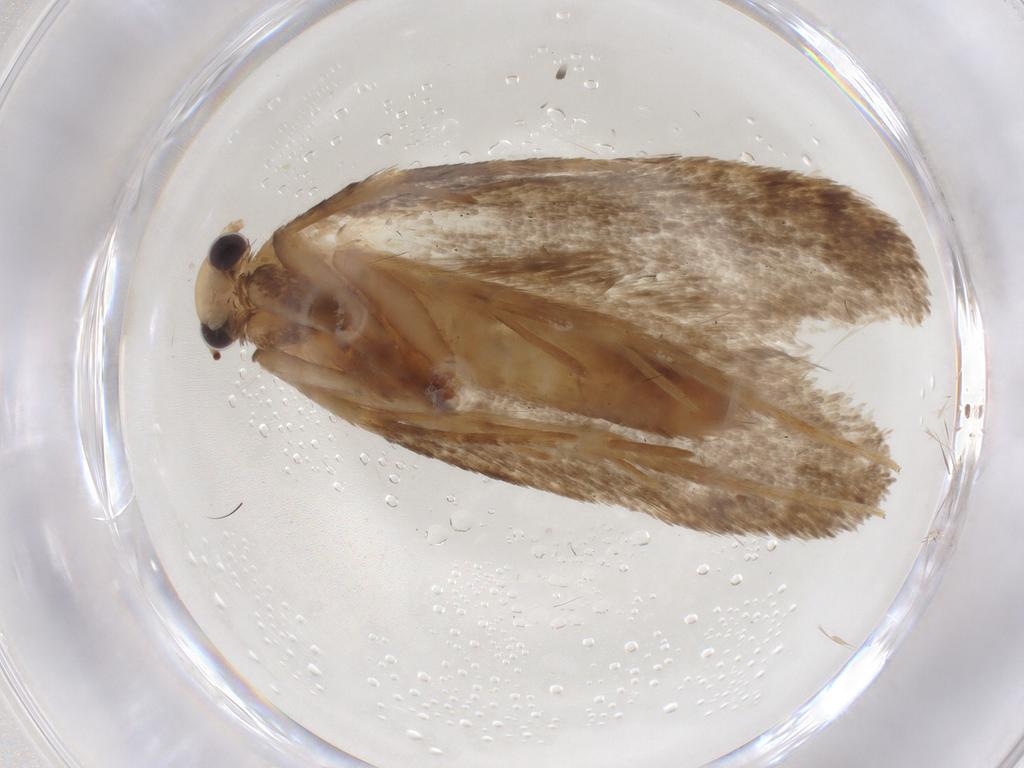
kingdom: Animalia
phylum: Arthropoda
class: Insecta
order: Lepidoptera
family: Tineidae
